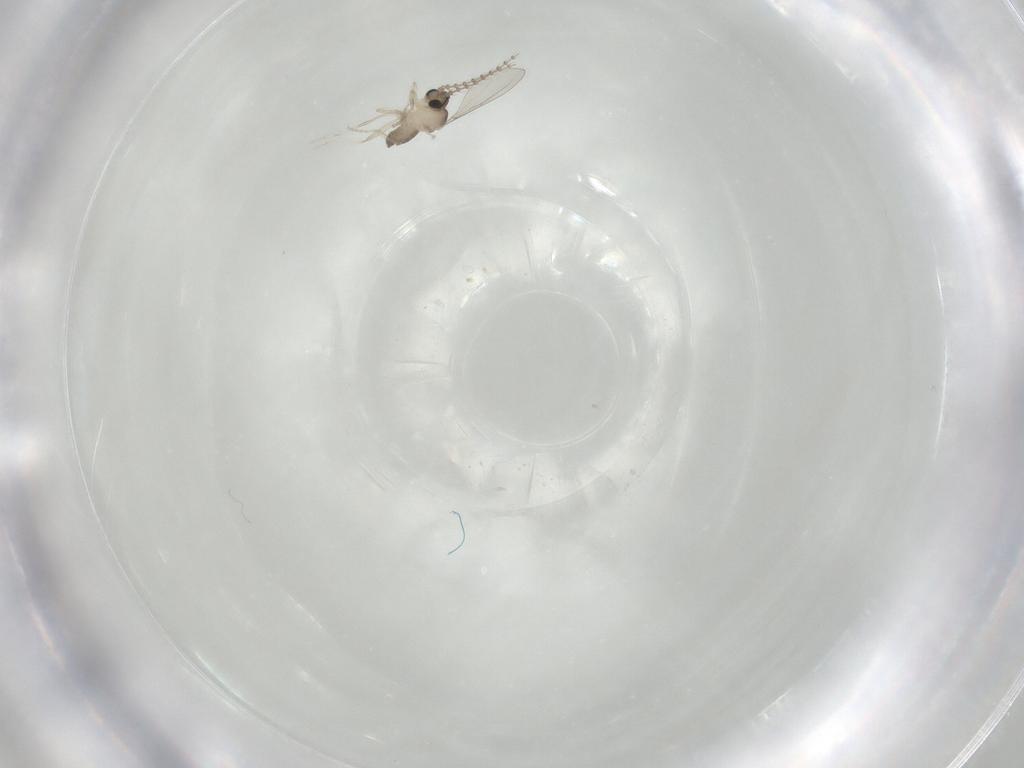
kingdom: Animalia
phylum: Arthropoda
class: Insecta
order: Diptera
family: Cecidomyiidae
